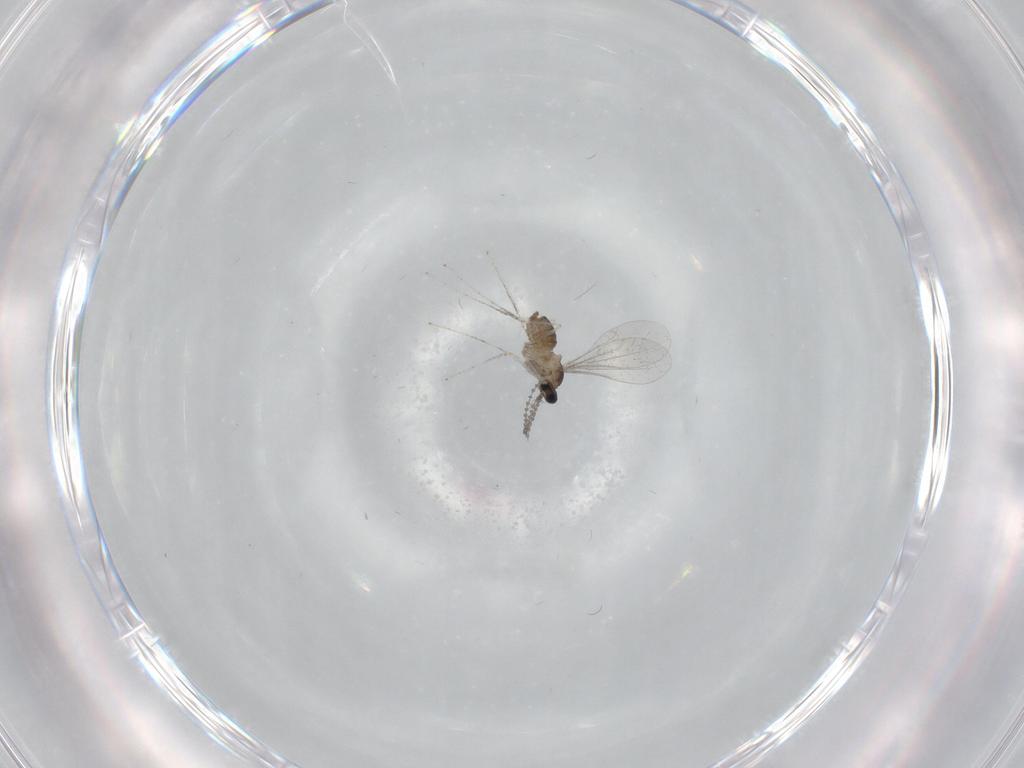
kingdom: Animalia
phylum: Arthropoda
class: Insecta
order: Diptera
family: Cecidomyiidae
